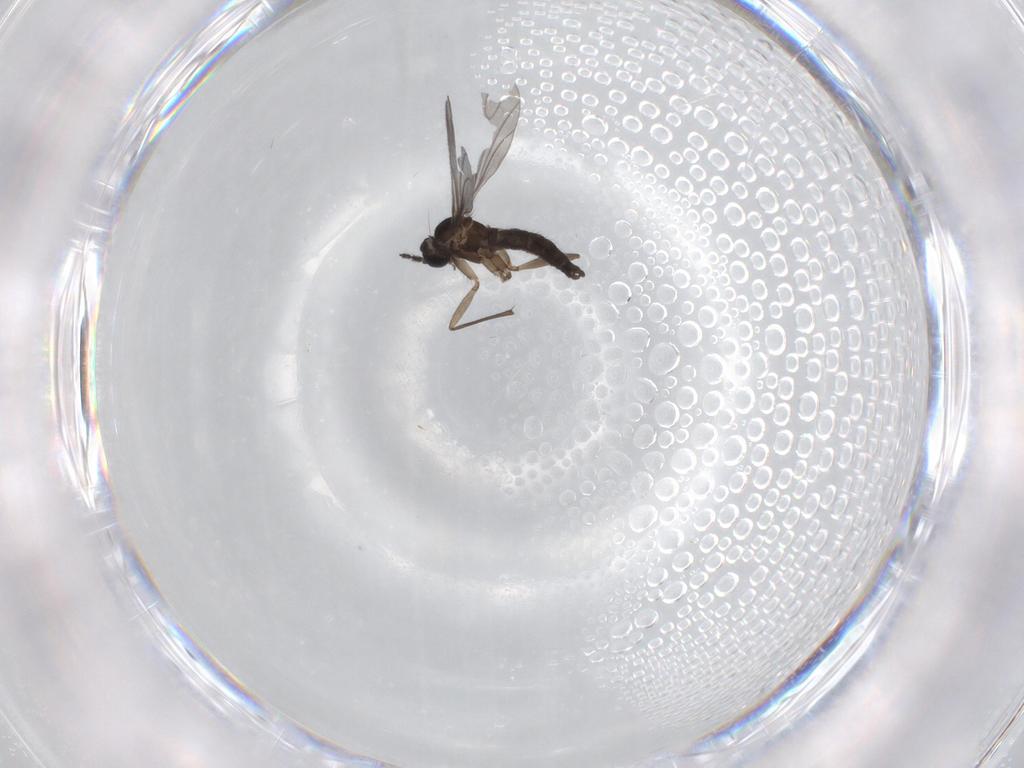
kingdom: Animalia
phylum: Arthropoda
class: Insecta
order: Diptera
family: Sciaridae
